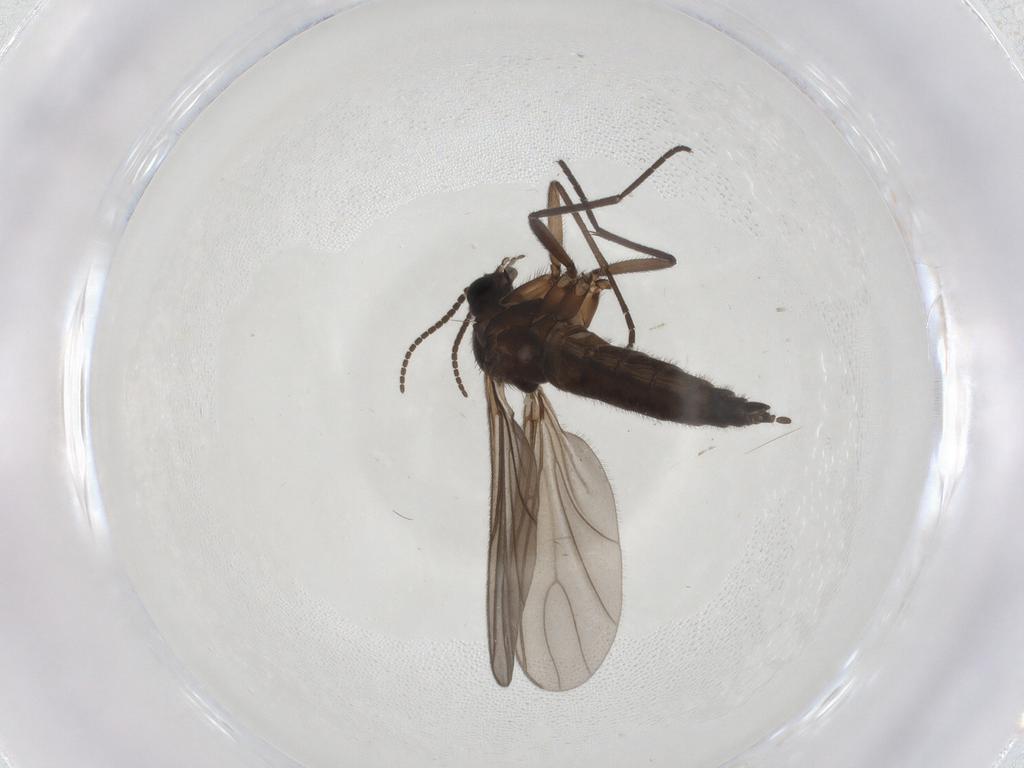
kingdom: Animalia
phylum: Arthropoda
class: Insecta
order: Diptera
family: Sciaridae
